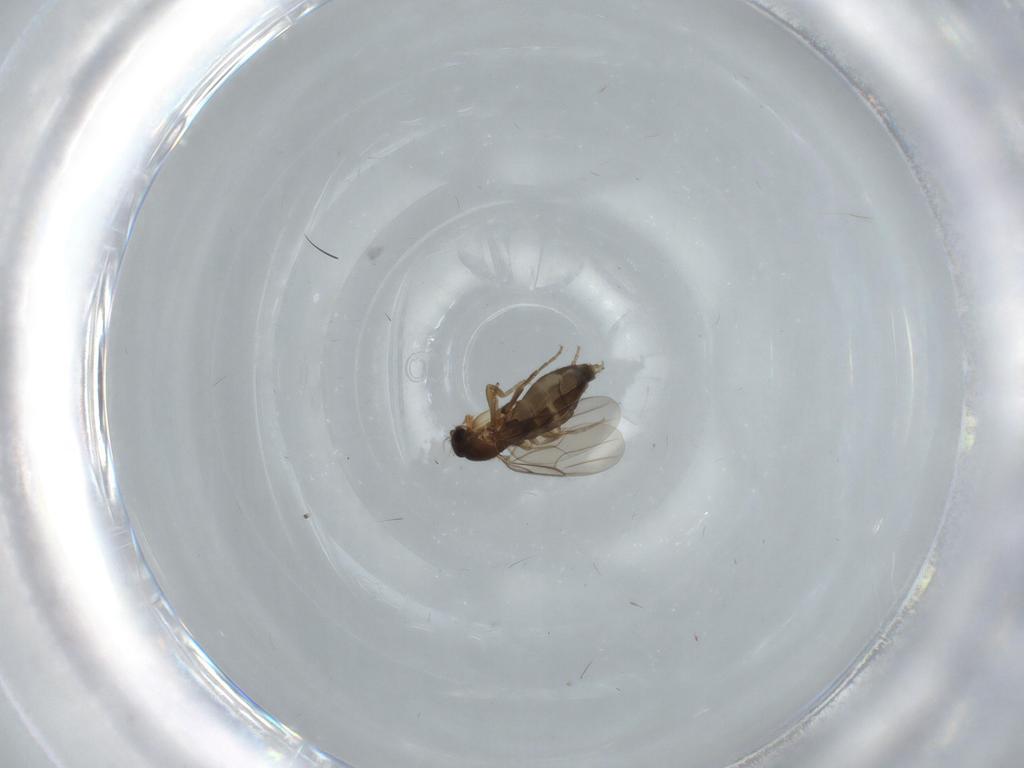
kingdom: Animalia
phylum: Arthropoda
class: Insecta
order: Diptera
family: Phoridae
